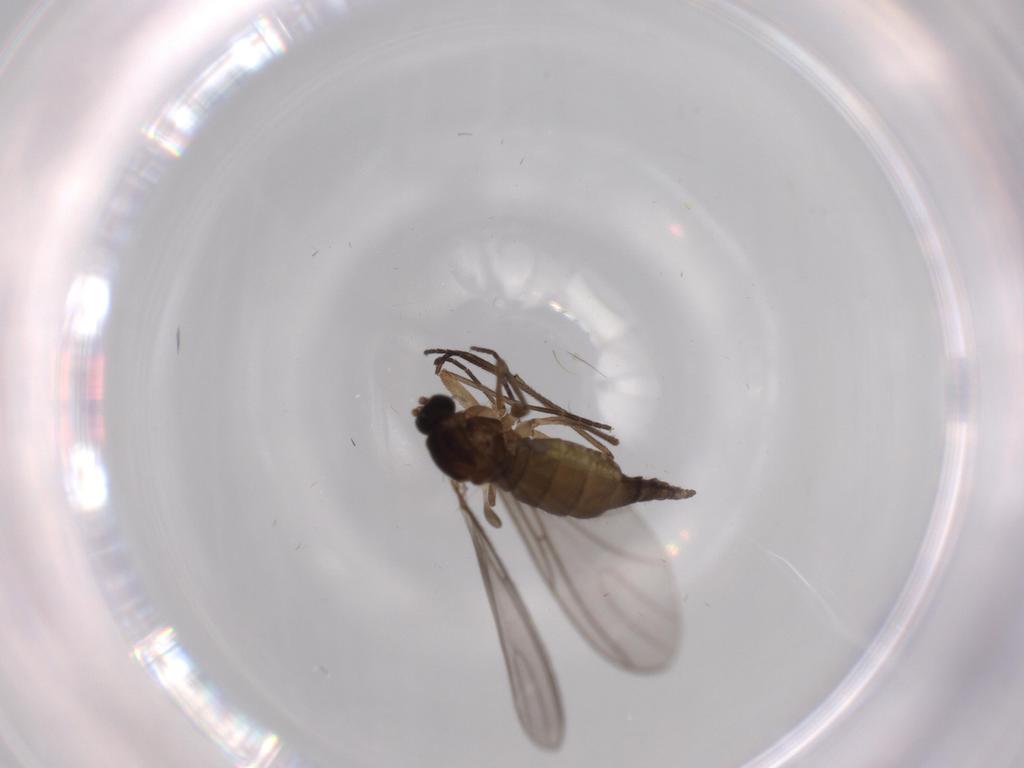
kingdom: Animalia
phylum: Arthropoda
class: Insecta
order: Diptera
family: Sciaridae
